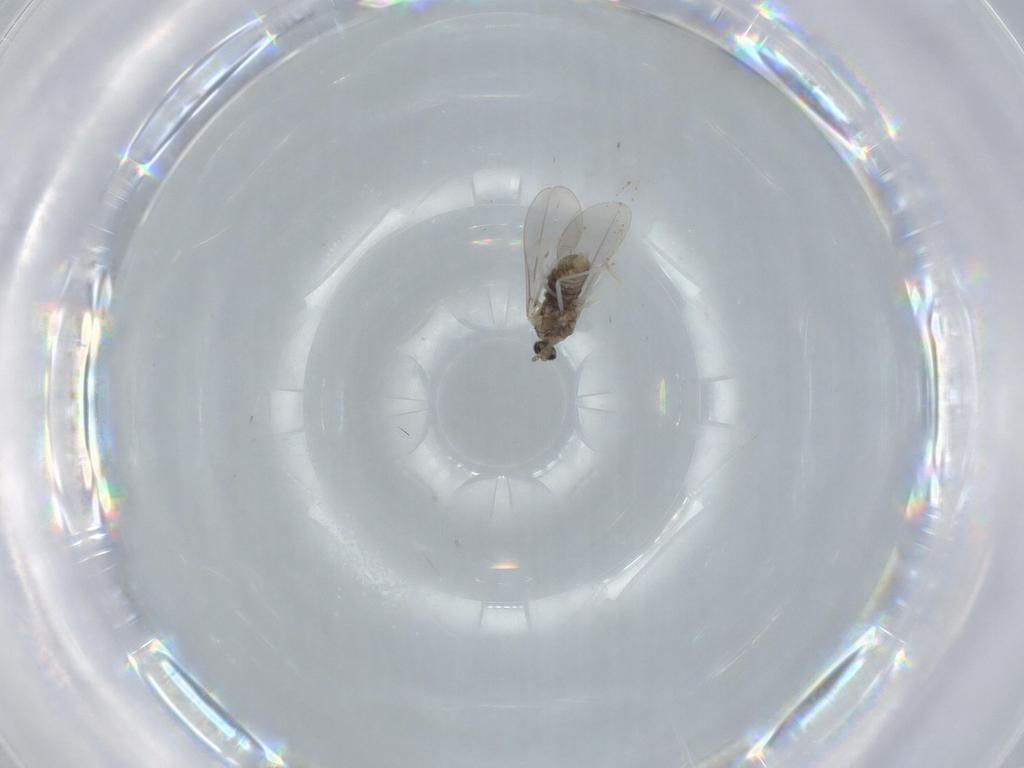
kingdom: Animalia
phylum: Arthropoda
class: Insecta
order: Diptera
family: Cecidomyiidae
